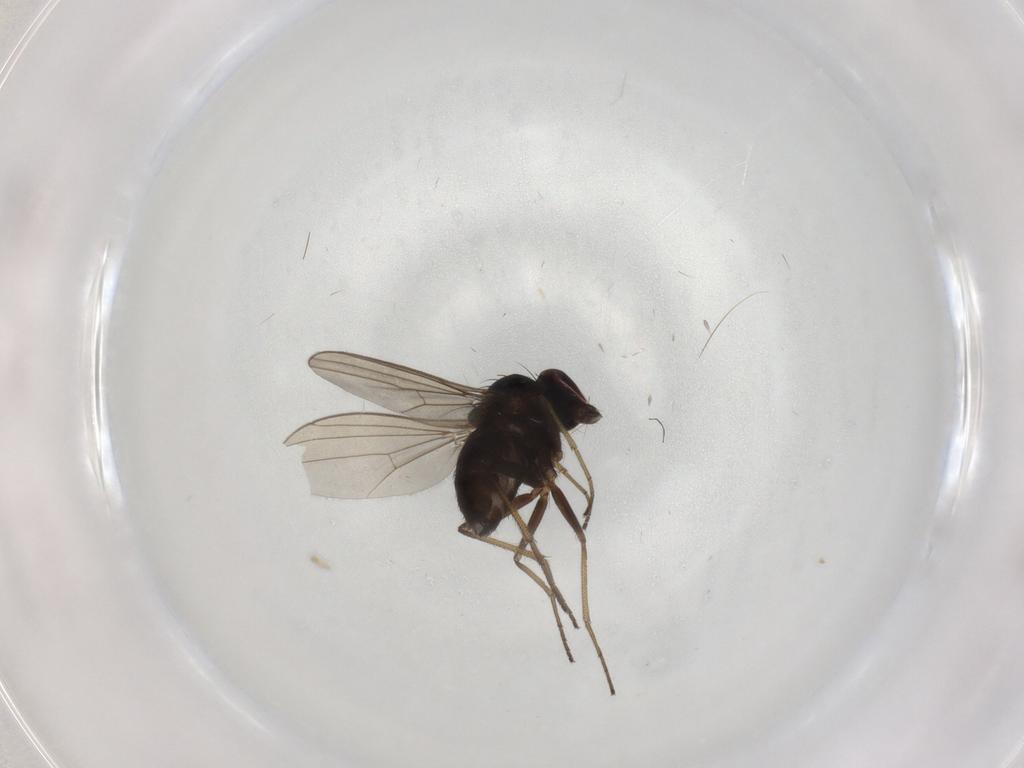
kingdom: Animalia
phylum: Arthropoda
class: Insecta
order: Diptera
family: Dolichopodidae
